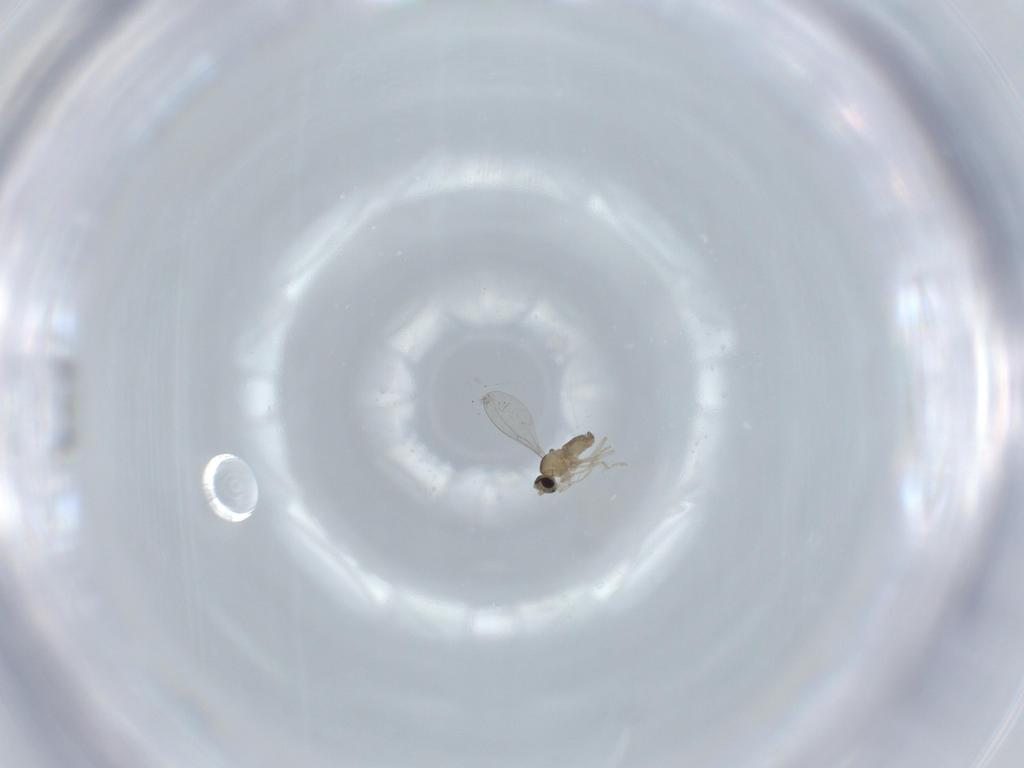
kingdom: Animalia
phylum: Arthropoda
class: Insecta
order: Diptera
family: Cecidomyiidae
